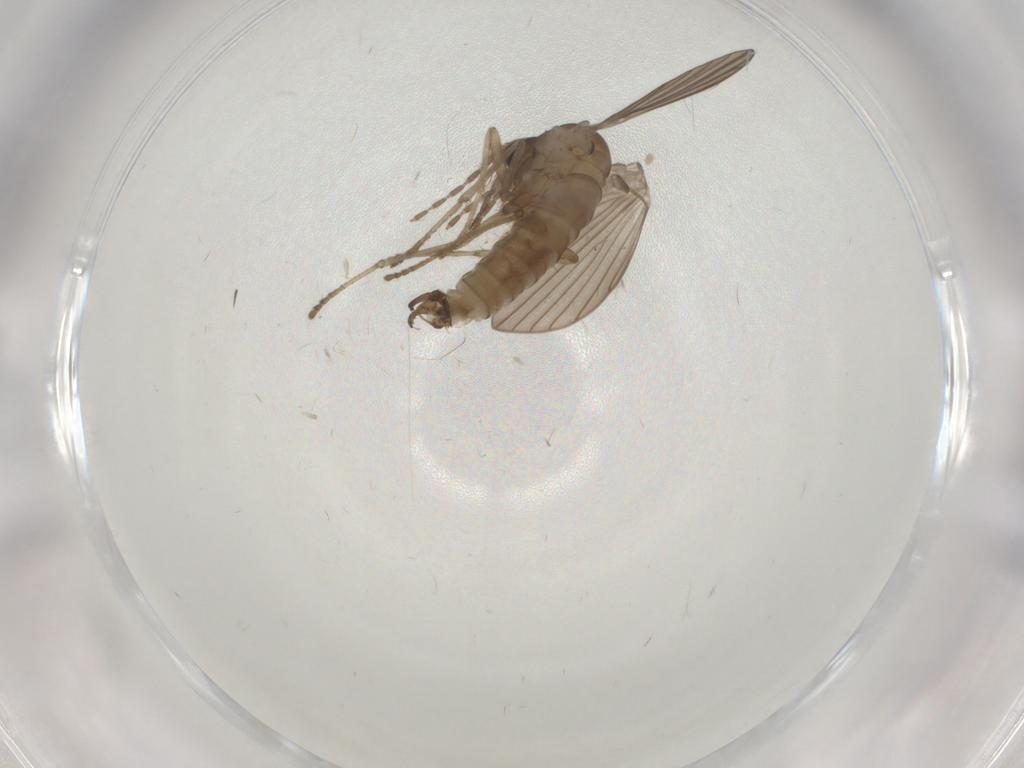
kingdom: Animalia
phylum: Arthropoda
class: Insecta
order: Diptera
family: Psychodidae
